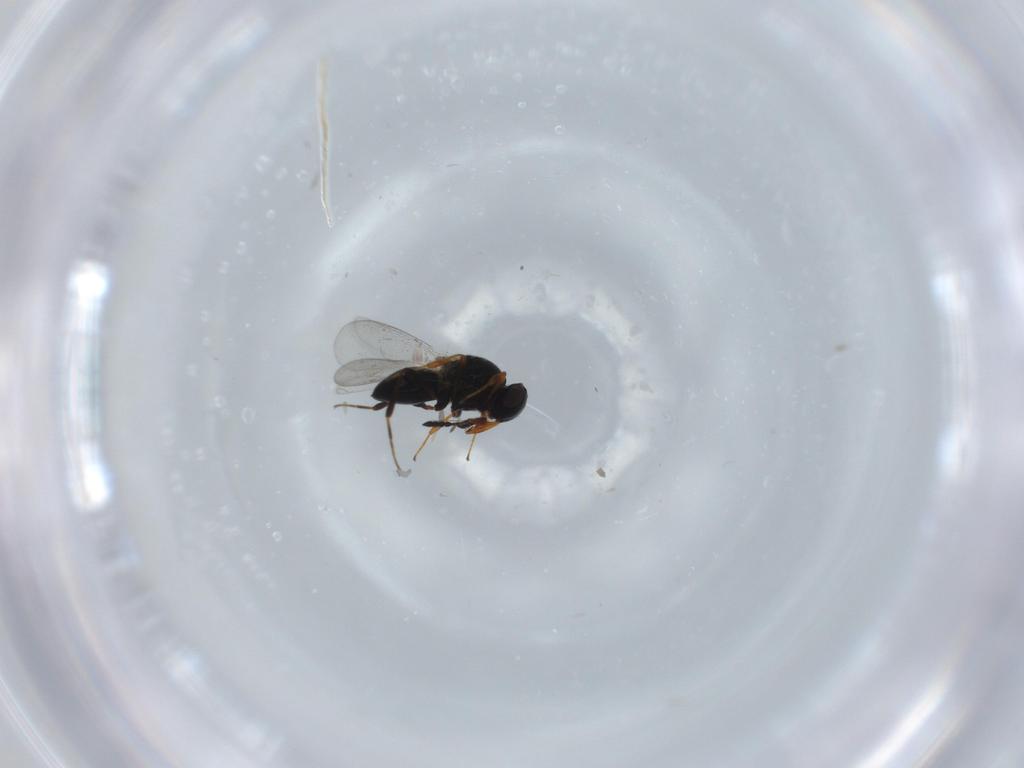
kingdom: Animalia
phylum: Arthropoda
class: Insecta
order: Hymenoptera
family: Platygastridae
